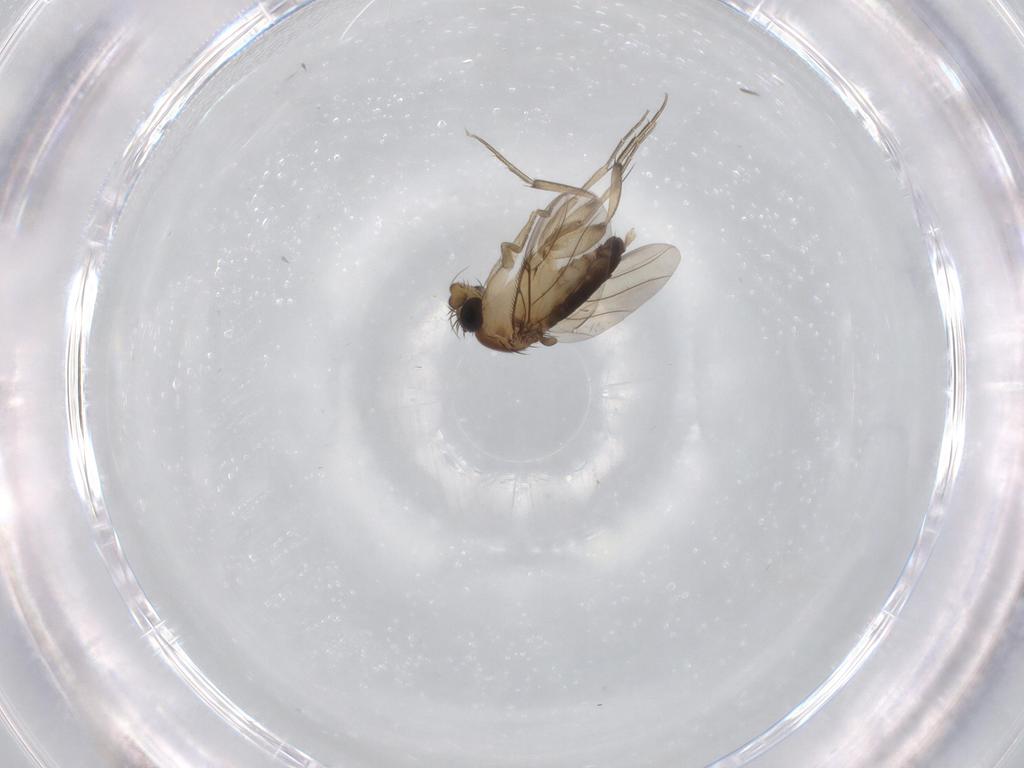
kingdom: Animalia
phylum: Arthropoda
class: Insecta
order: Diptera
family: Phoridae
